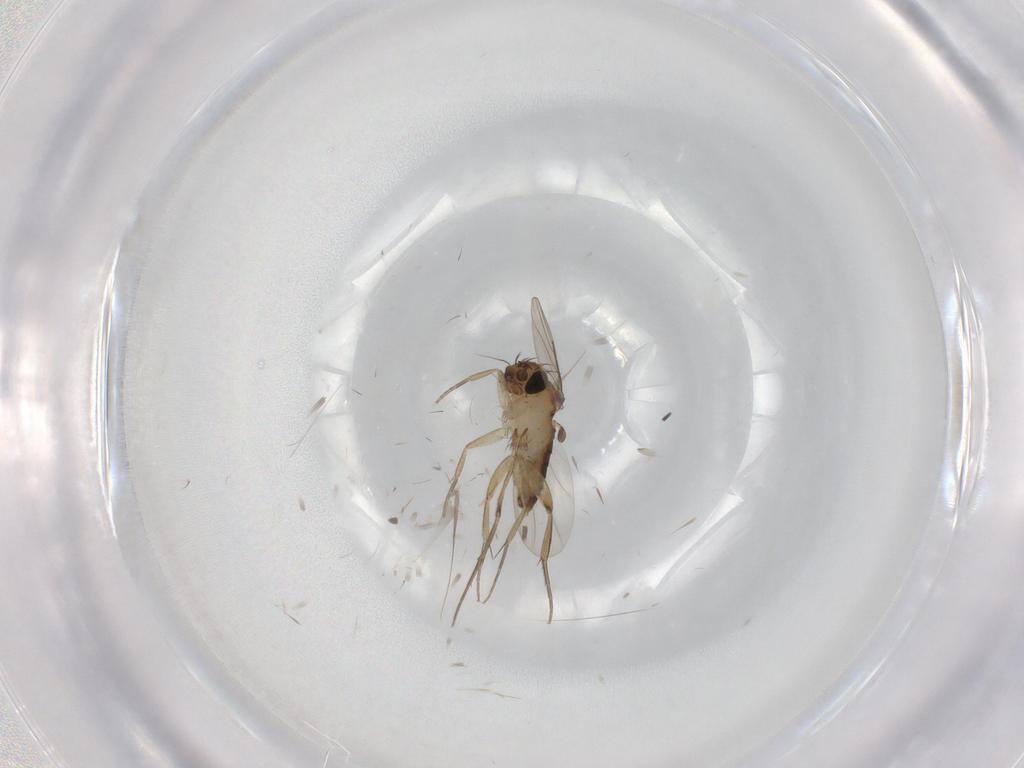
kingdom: Animalia
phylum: Arthropoda
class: Insecta
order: Diptera
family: Phoridae
